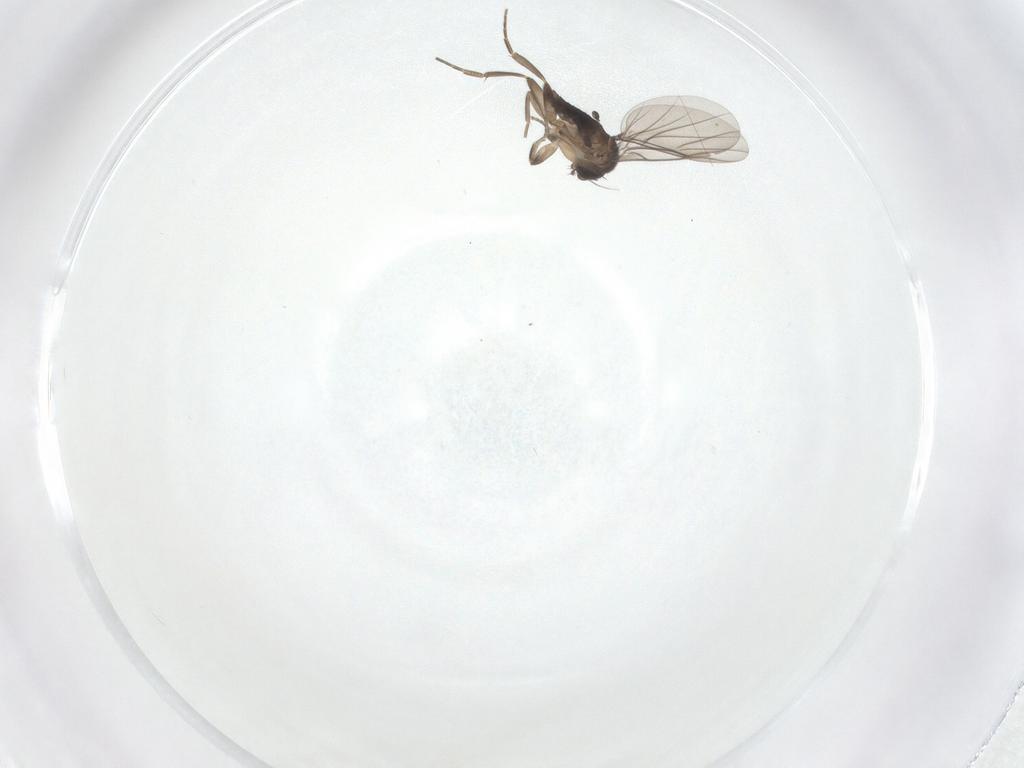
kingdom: Animalia
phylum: Arthropoda
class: Insecta
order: Diptera
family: Phoridae
